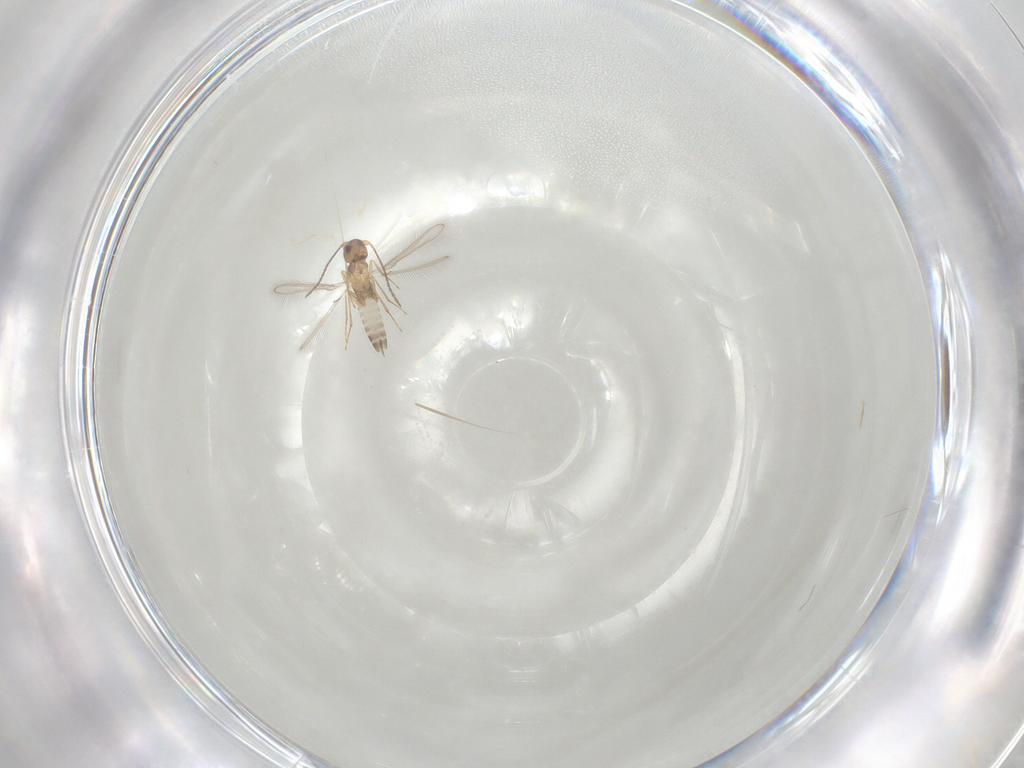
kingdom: Animalia
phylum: Arthropoda
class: Insecta
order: Hymenoptera
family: Mymaridae
